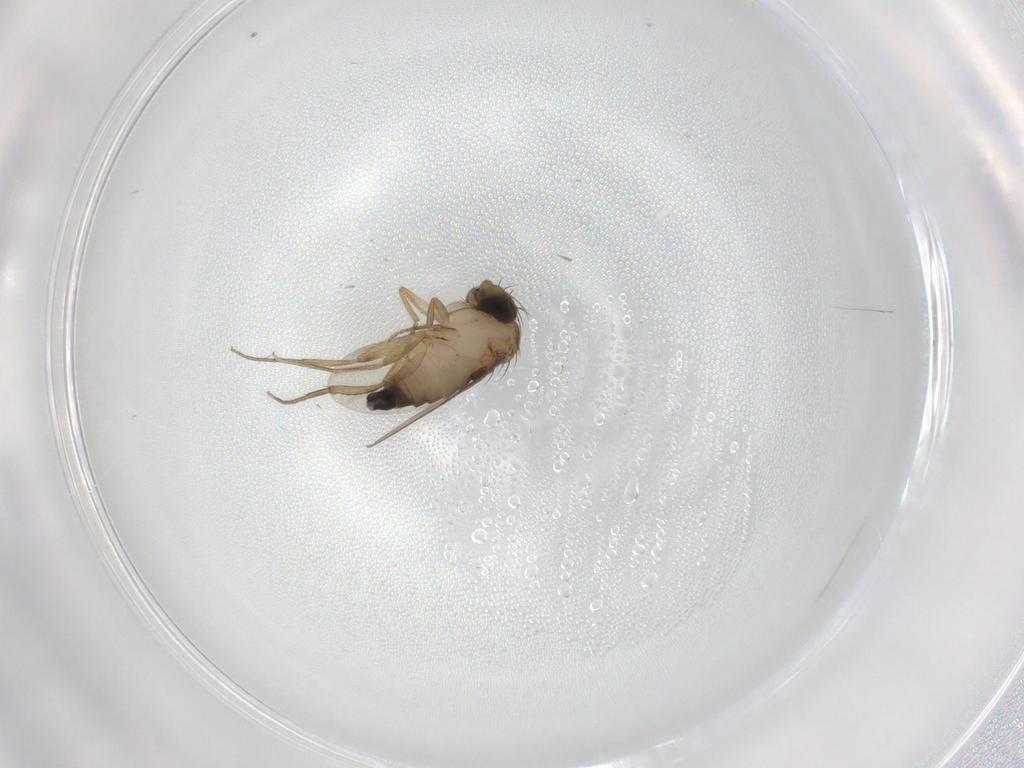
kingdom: Animalia
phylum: Arthropoda
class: Insecta
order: Diptera
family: Phoridae
